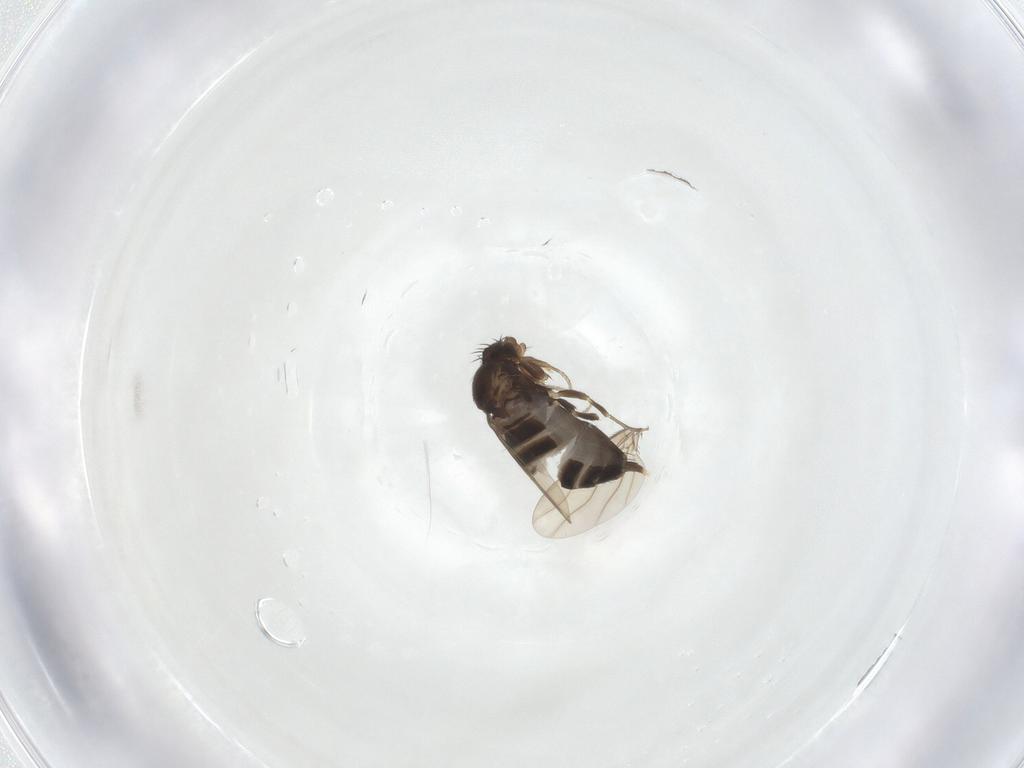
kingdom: Animalia
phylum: Arthropoda
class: Insecta
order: Diptera
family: Phoridae
